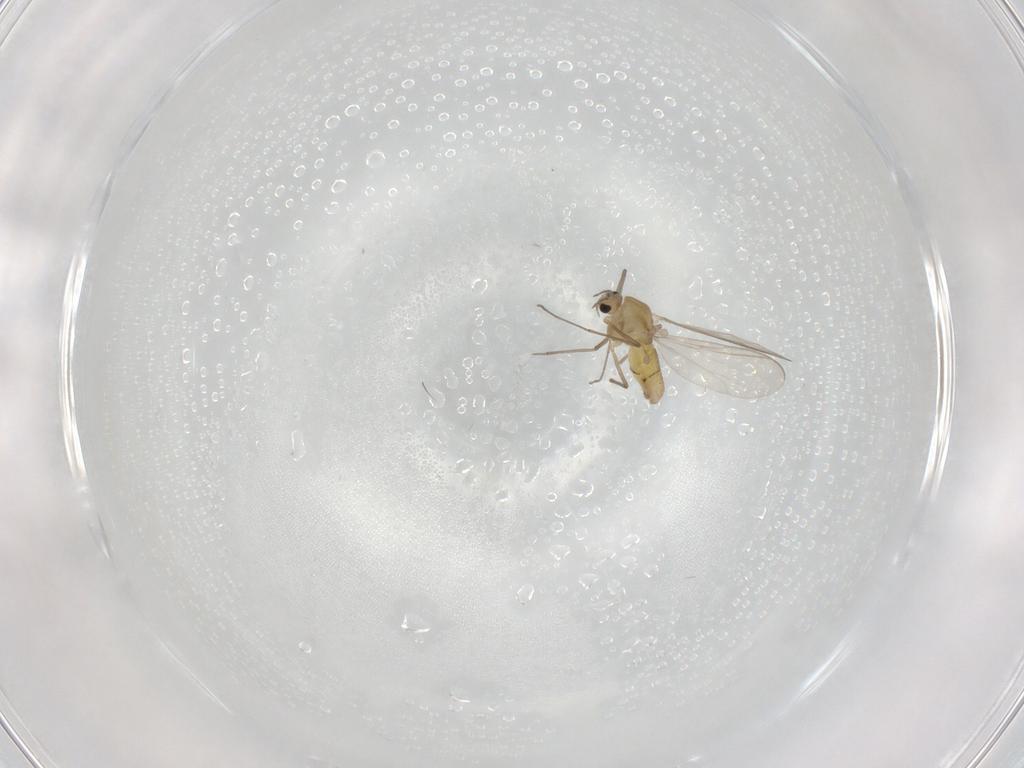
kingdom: Animalia
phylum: Arthropoda
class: Insecta
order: Diptera
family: Chironomidae
